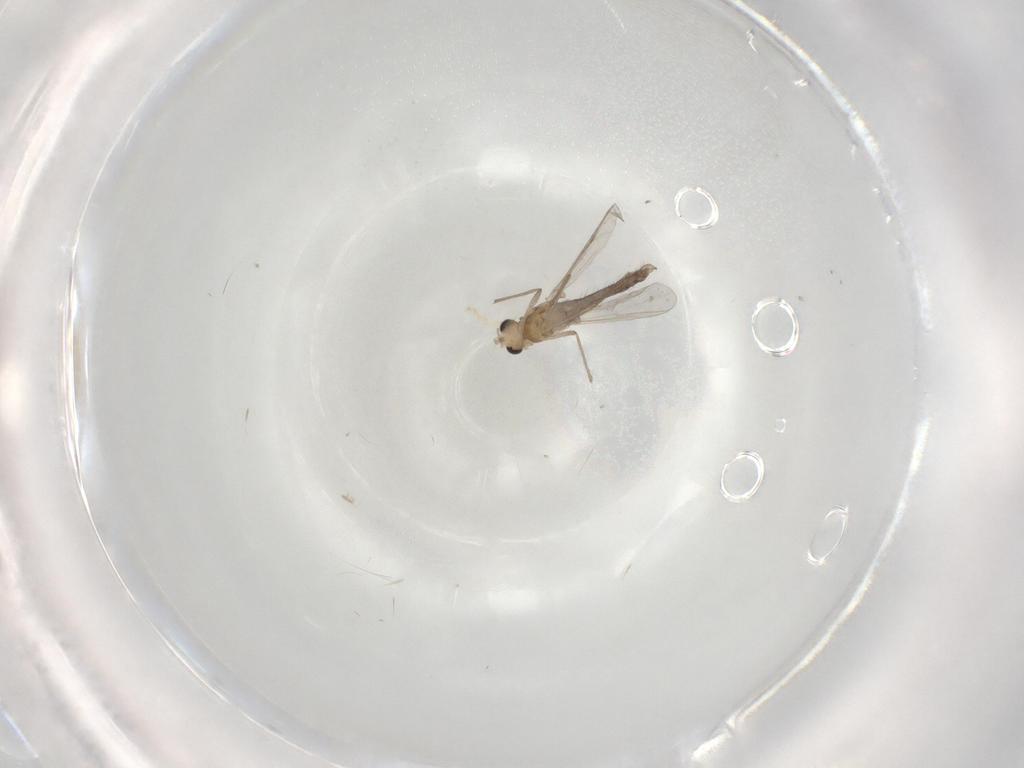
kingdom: Animalia
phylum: Arthropoda
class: Insecta
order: Diptera
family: Chironomidae
